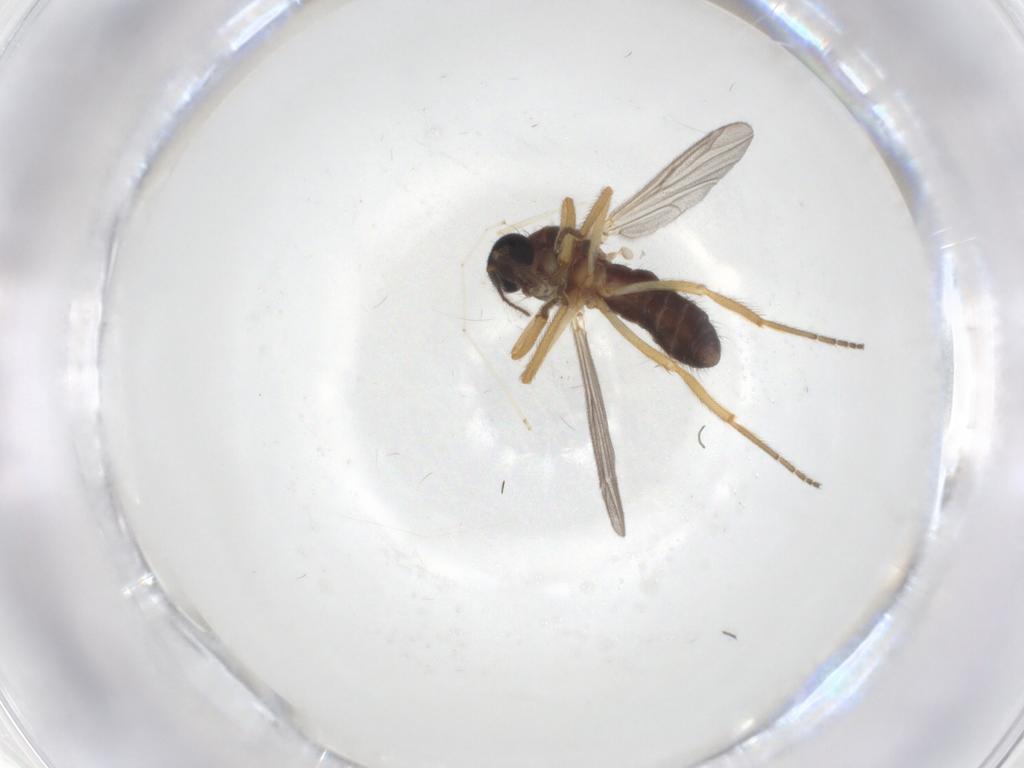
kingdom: Animalia
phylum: Arthropoda
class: Insecta
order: Diptera
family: Ceratopogonidae
